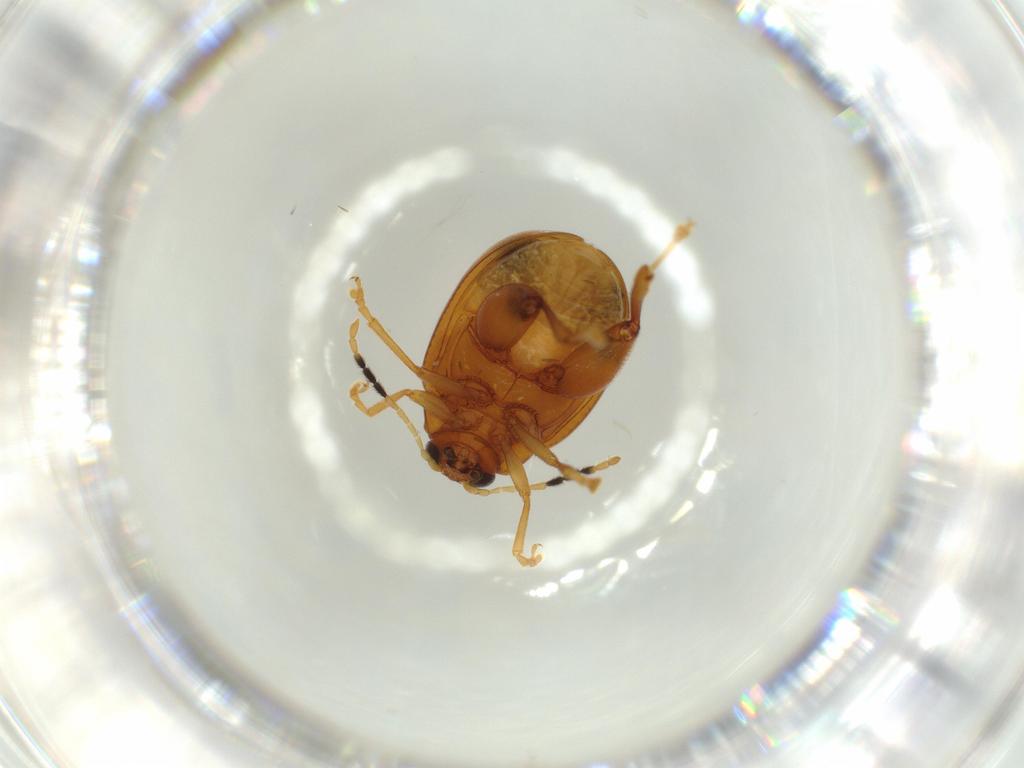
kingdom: Animalia
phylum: Arthropoda
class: Insecta
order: Coleoptera
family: Chrysomelidae
